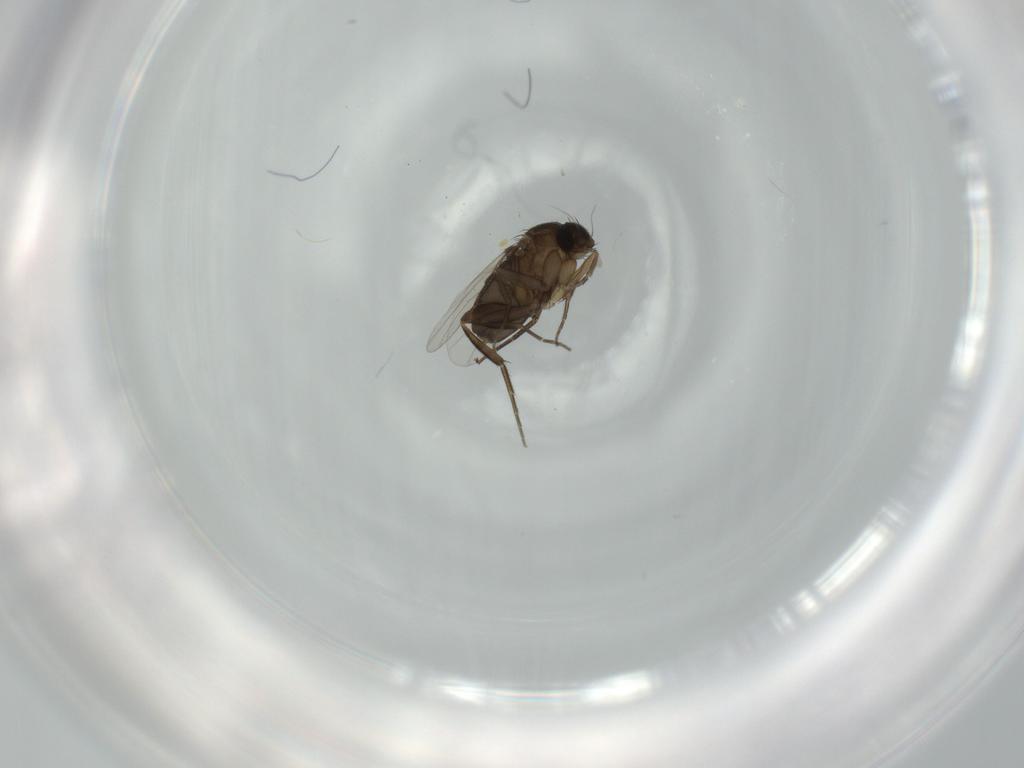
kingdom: Animalia
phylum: Arthropoda
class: Insecta
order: Diptera
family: Phoridae
